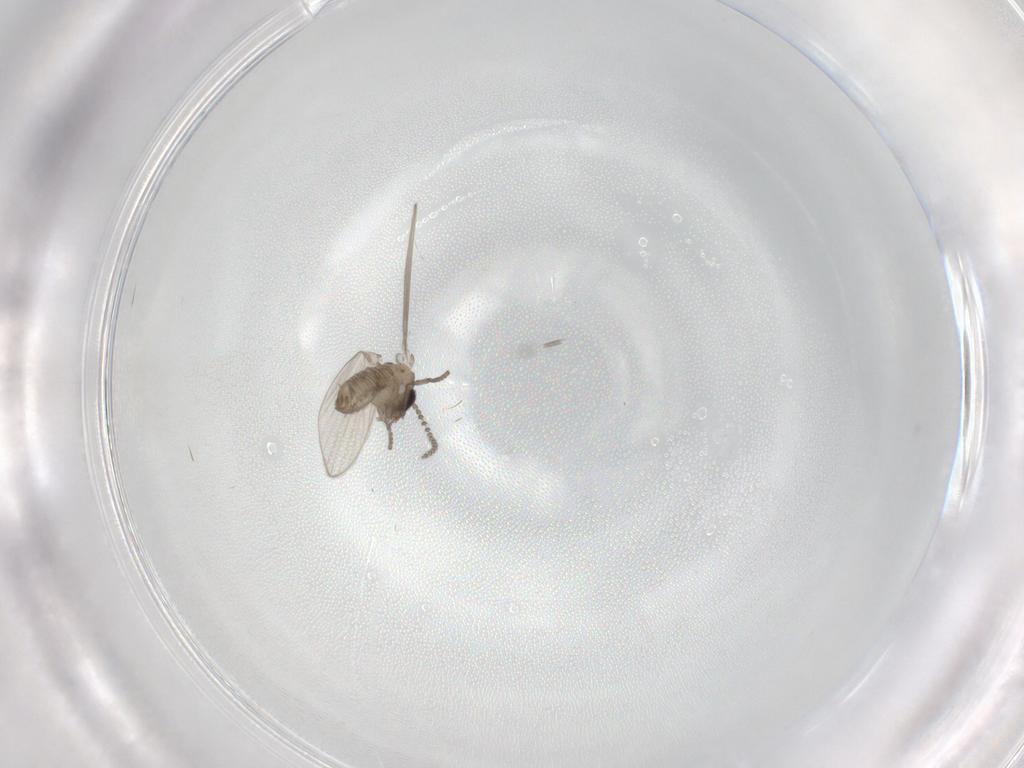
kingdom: Animalia
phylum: Arthropoda
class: Insecta
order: Diptera
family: Psychodidae
